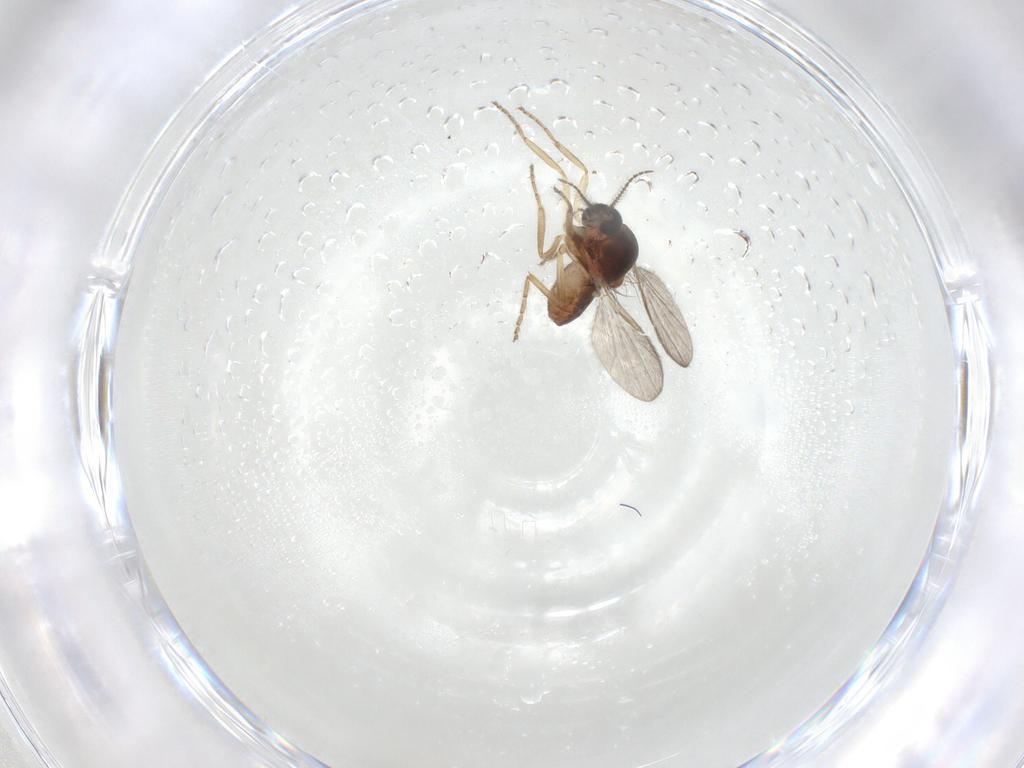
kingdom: Animalia
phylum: Arthropoda
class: Insecta
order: Diptera
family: Ceratopogonidae
